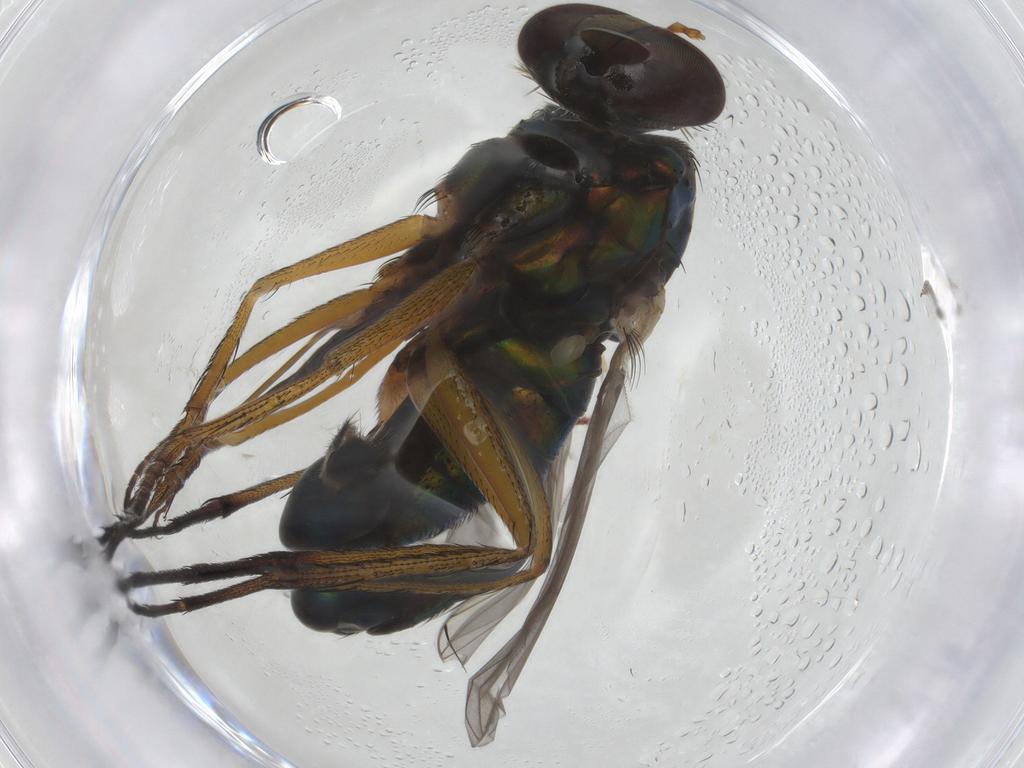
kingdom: Animalia
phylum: Arthropoda
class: Insecta
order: Diptera
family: Dolichopodidae
